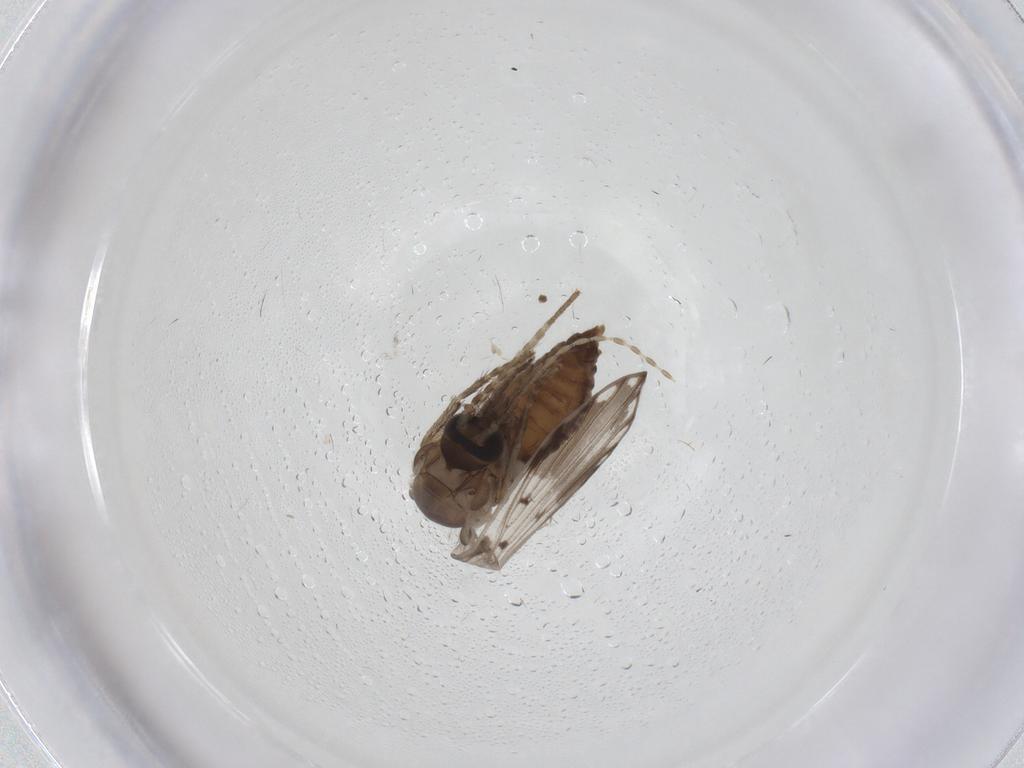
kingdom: Animalia
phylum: Arthropoda
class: Insecta
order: Diptera
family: Psychodidae
